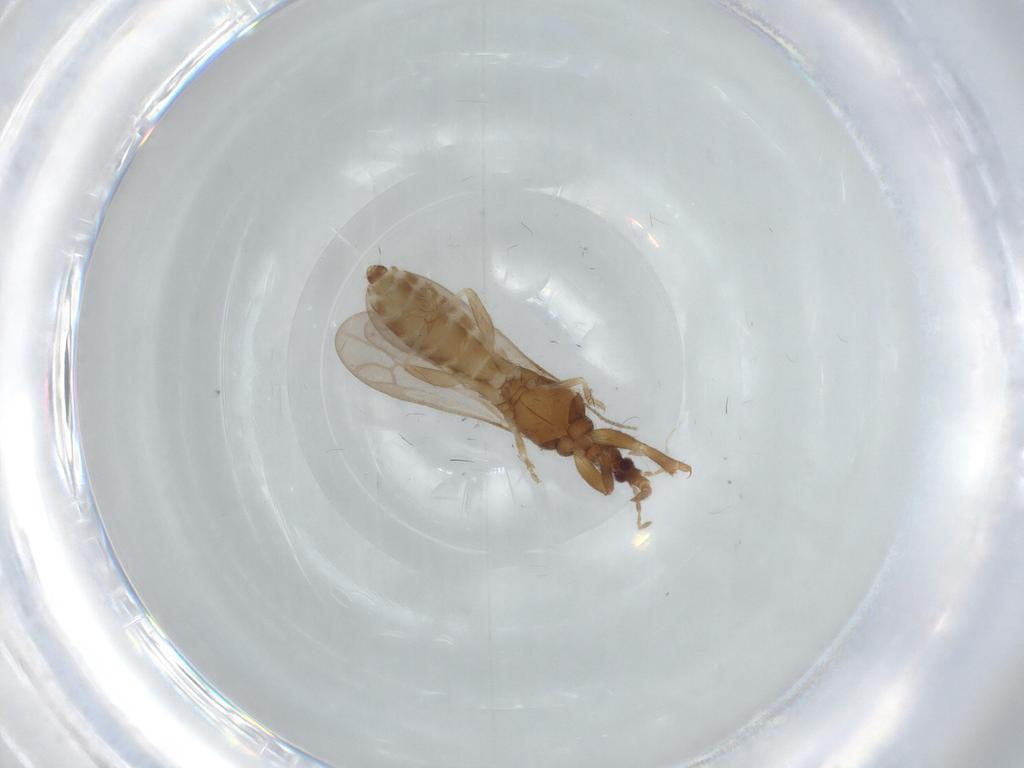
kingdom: Animalia
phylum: Arthropoda
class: Insecta
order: Hemiptera
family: Enicocephalidae
